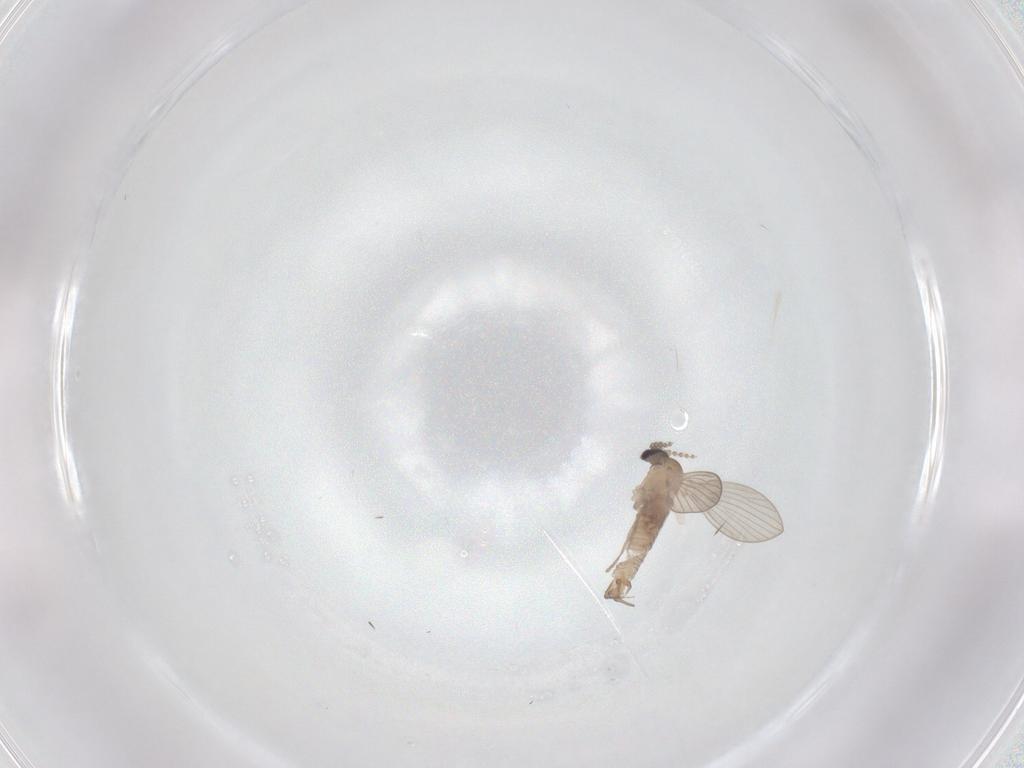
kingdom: Animalia
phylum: Arthropoda
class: Insecta
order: Diptera
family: Psychodidae
